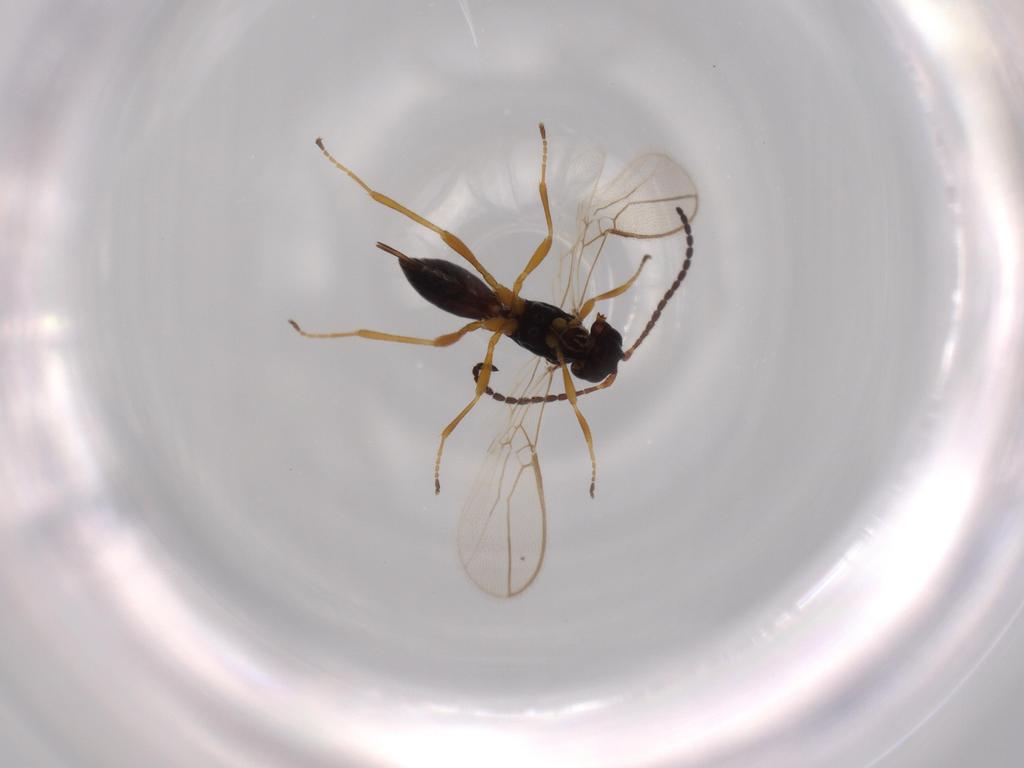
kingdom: Animalia
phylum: Arthropoda
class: Insecta
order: Hymenoptera
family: Braconidae
